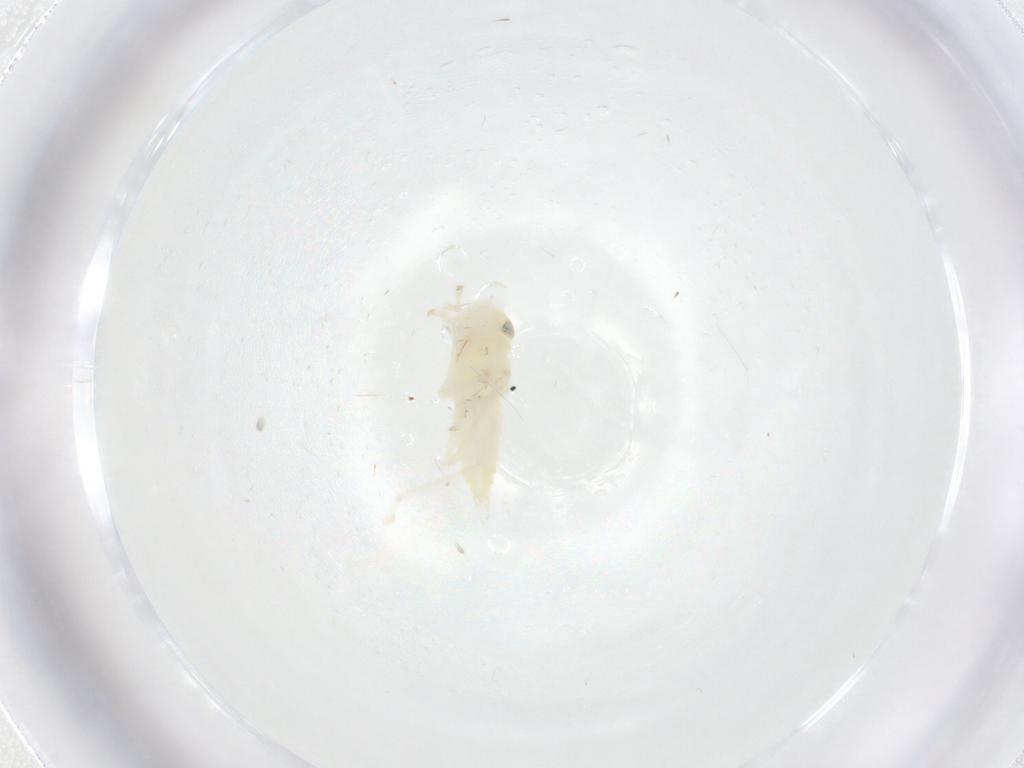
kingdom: Animalia
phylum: Arthropoda
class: Insecta
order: Hemiptera
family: Cicadellidae
